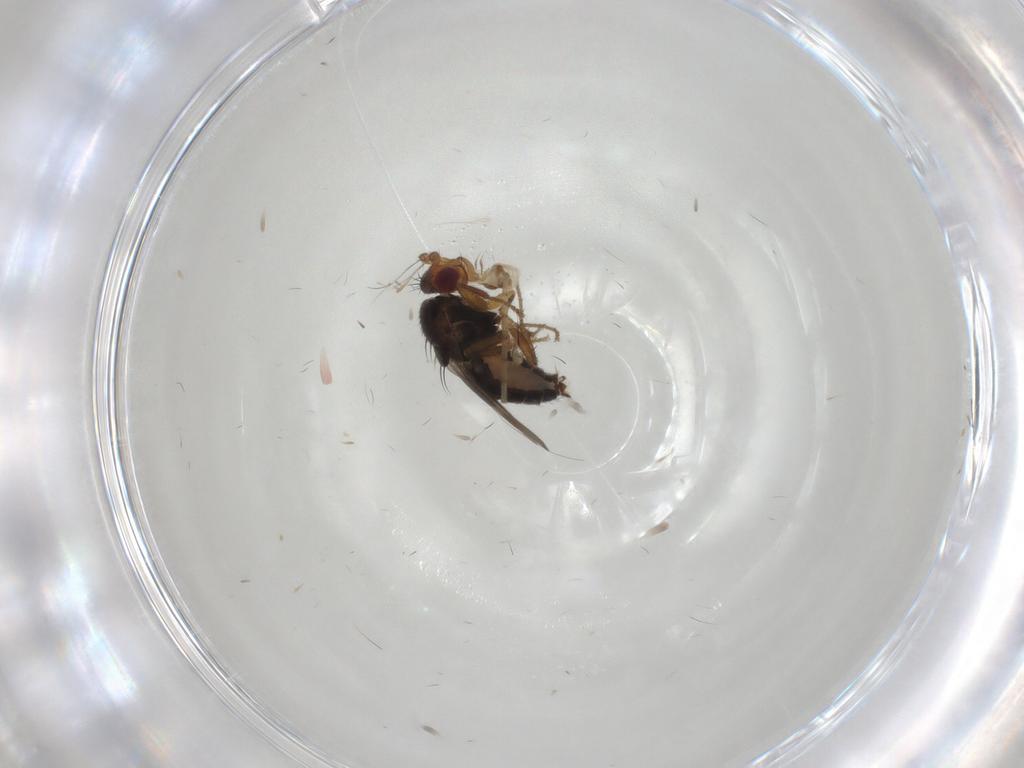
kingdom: Animalia
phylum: Arthropoda
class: Insecta
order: Diptera
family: Sphaeroceridae
